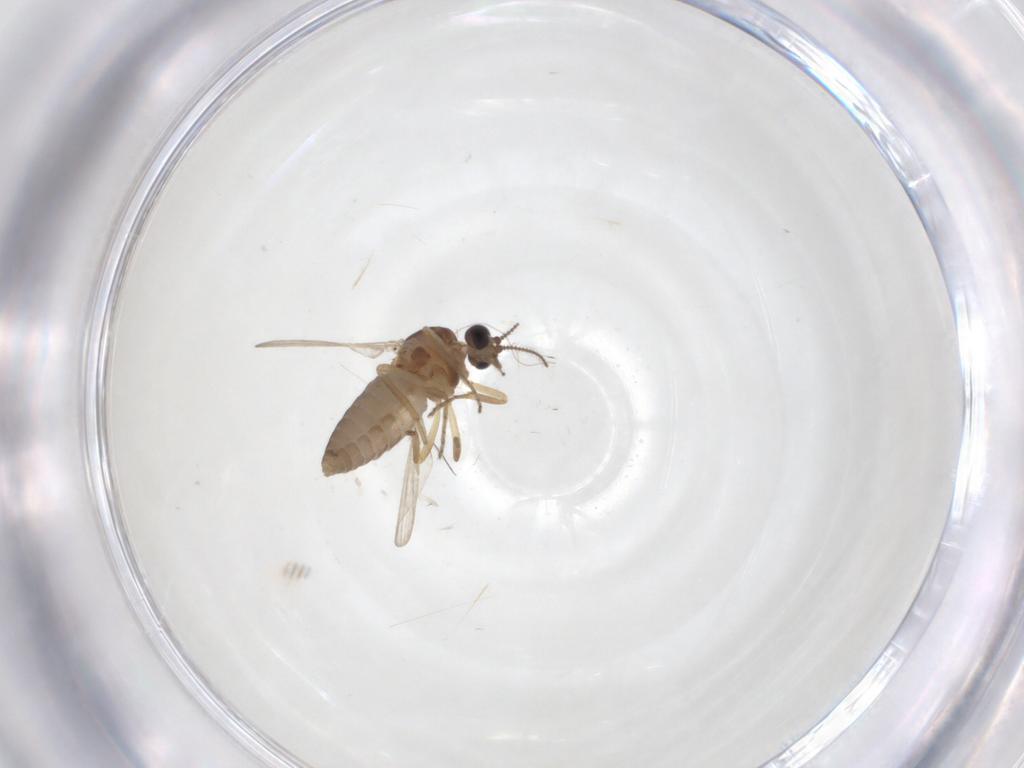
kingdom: Animalia
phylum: Arthropoda
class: Insecta
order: Diptera
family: Ceratopogonidae
